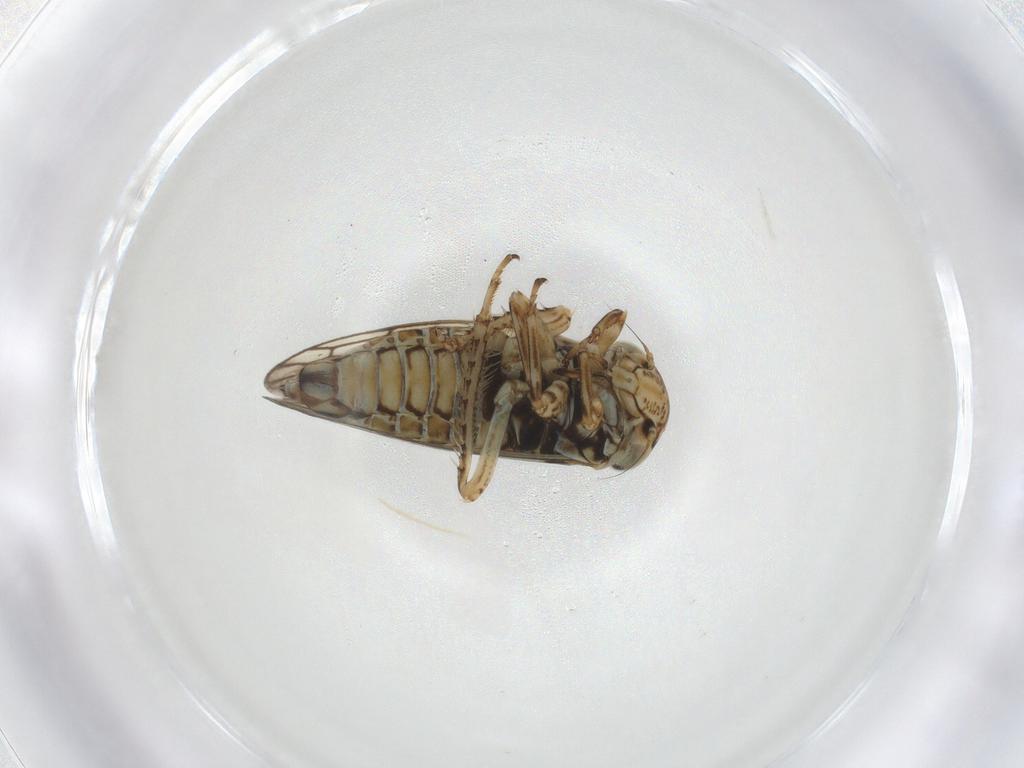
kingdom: Animalia
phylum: Arthropoda
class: Insecta
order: Hemiptera
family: Cicadellidae
